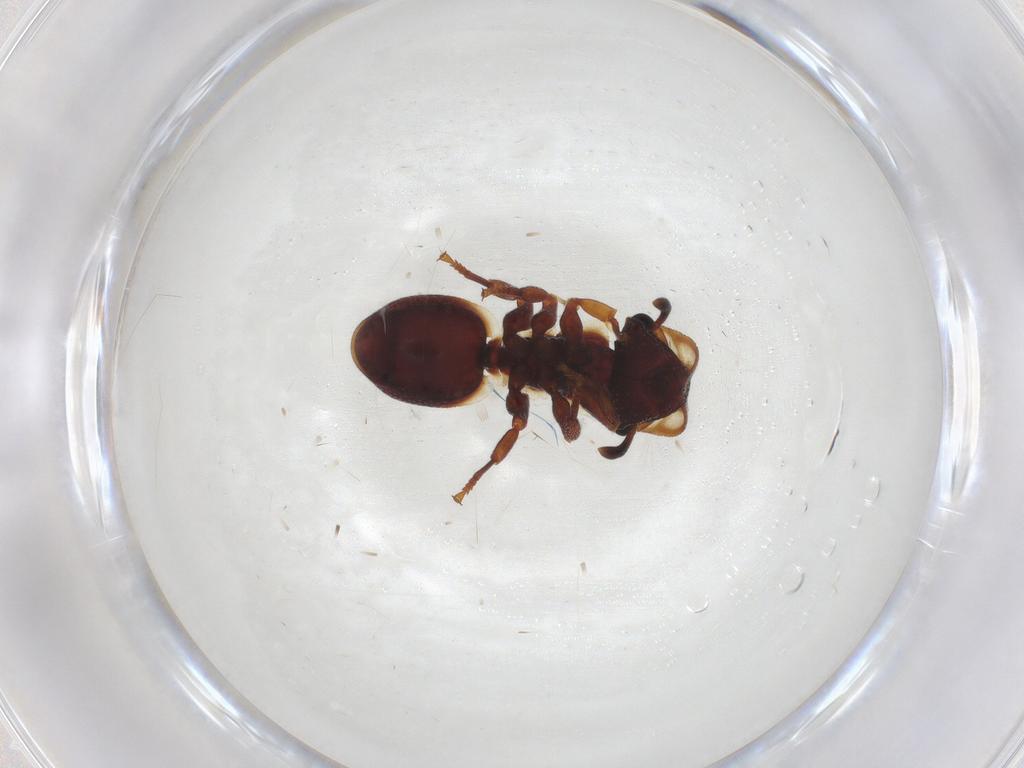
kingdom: Animalia
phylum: Arthropoda
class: Insecta
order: Hymenoptera
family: Formicidae
